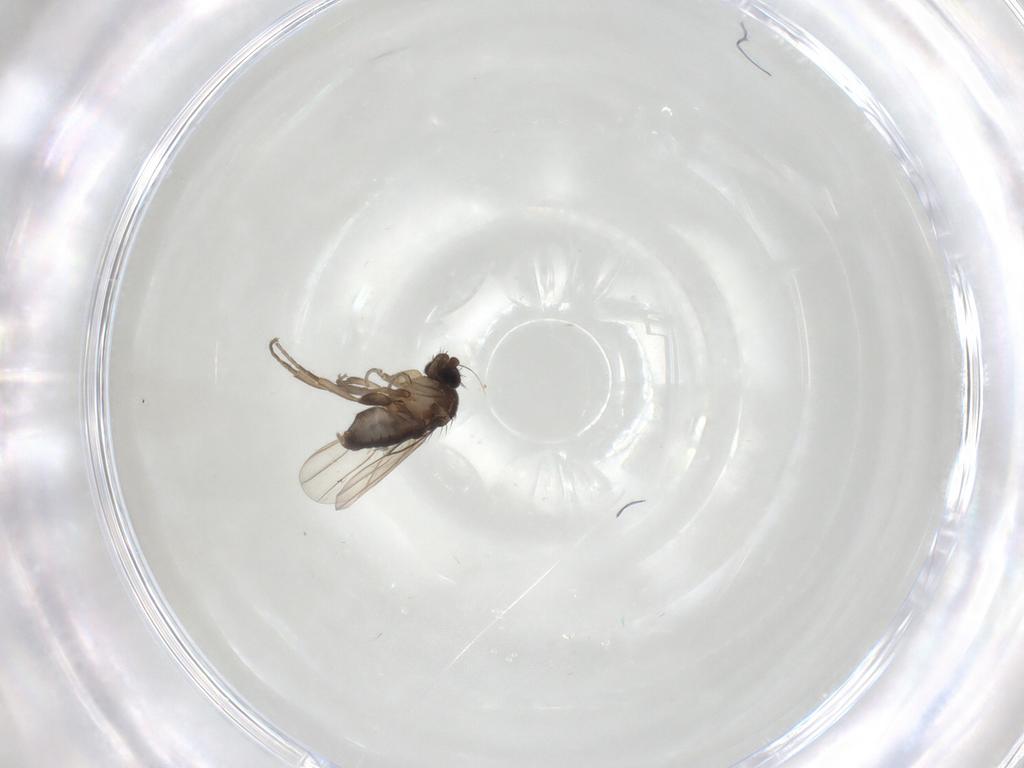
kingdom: Animalia
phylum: Arthropoda
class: Insecta
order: Diptera
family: Phoridae
